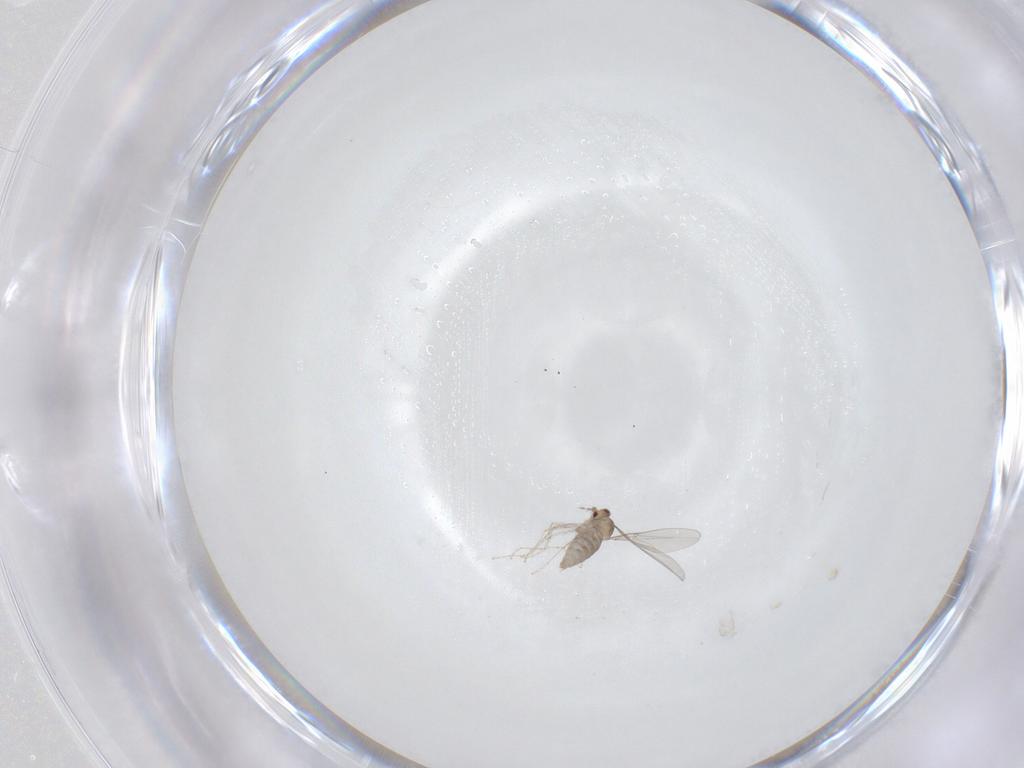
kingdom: Animalia
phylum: Arthropoda
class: Insecta
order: Diptera
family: Cecidomyiidae
